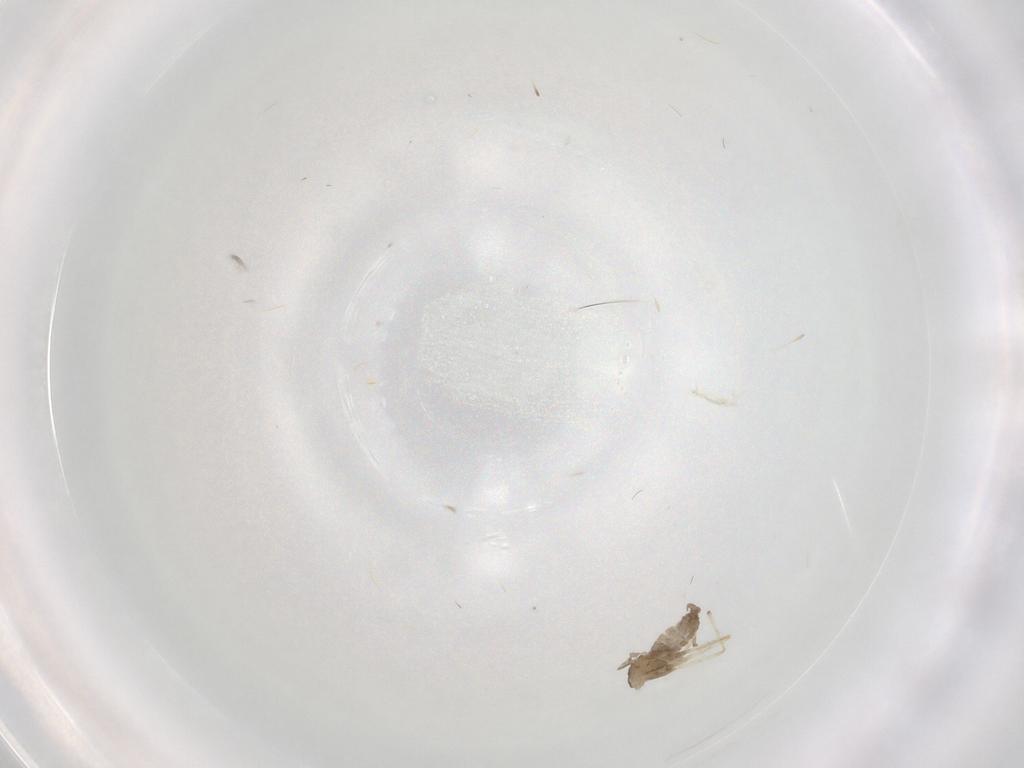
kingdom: Animalia
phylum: Arthropoda
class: Insecta
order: Diptera
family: Cecidomyiidae
